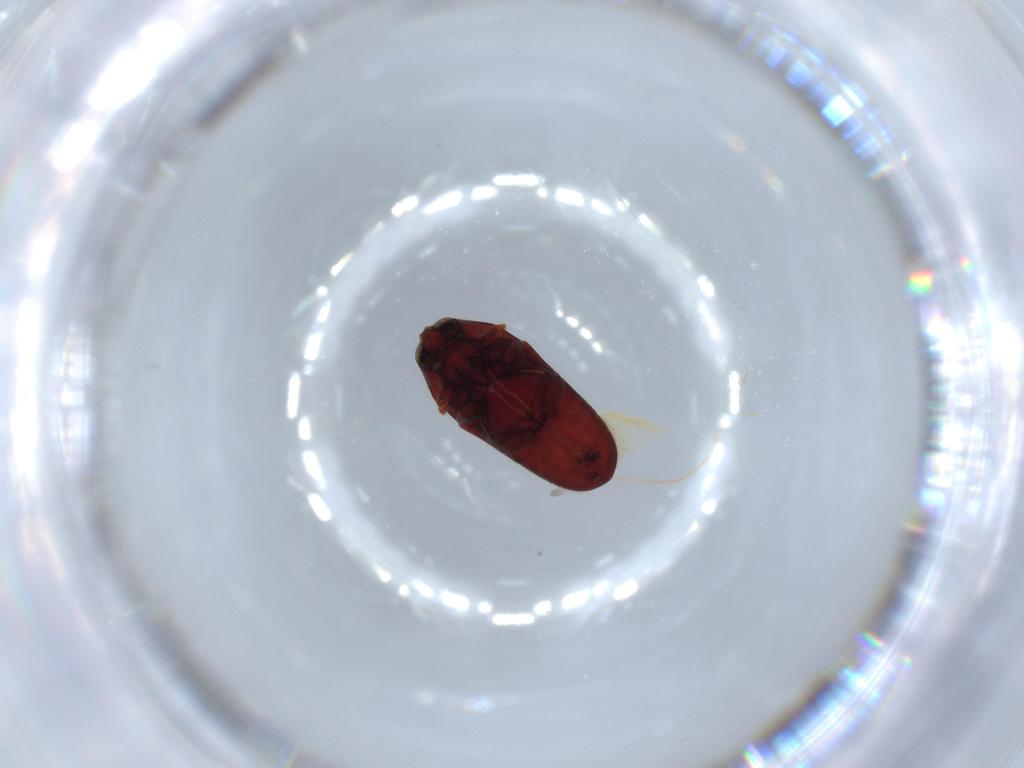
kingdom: Animalia
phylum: Arthropoda
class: Insecta
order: Coleoptera
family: Throscidae
